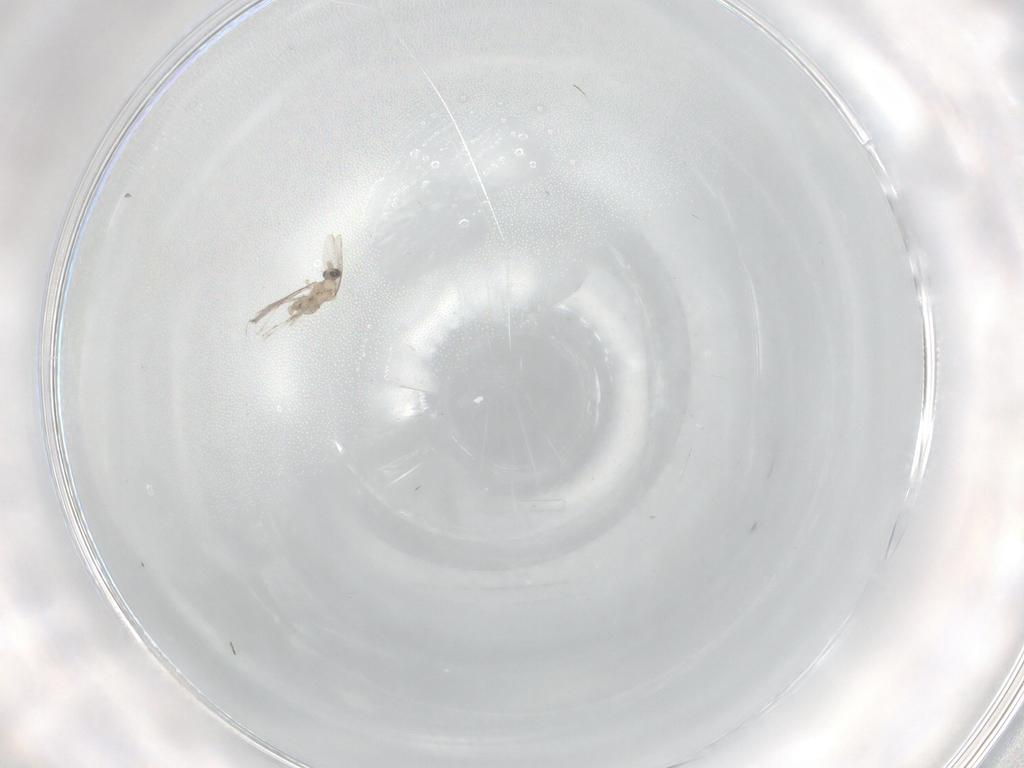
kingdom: Animalia
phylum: Arthropoda
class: Insecta
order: Diptera
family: Cecidomyiidae
